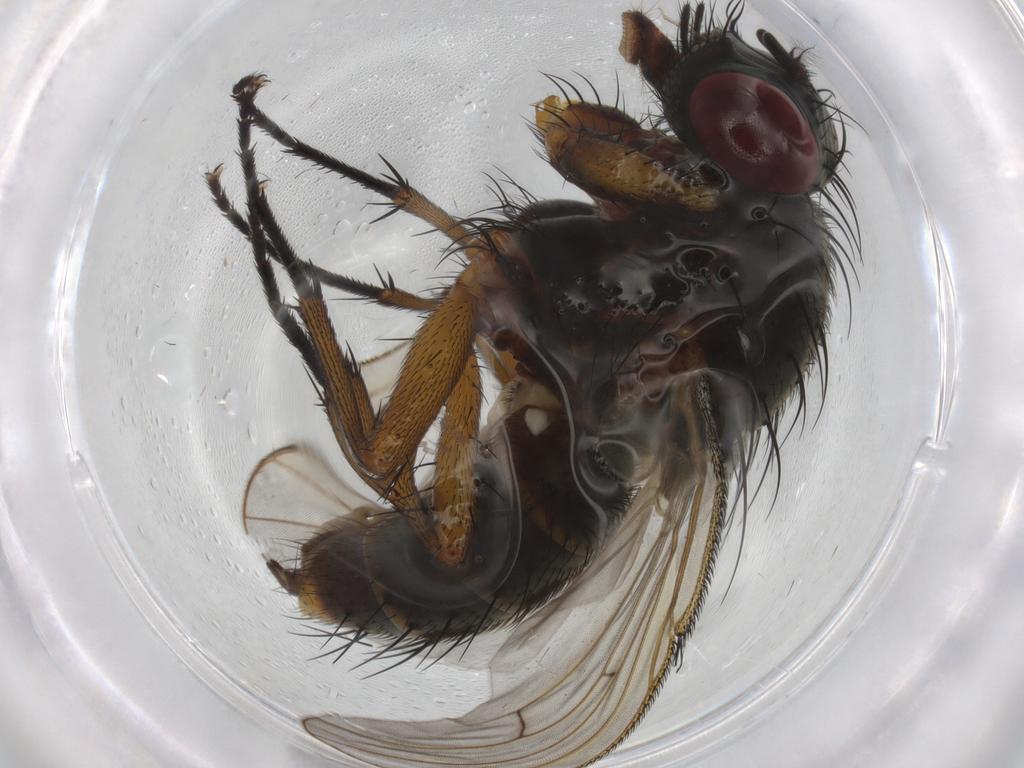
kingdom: Animalia
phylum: Arthropoda
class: Insecta
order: Diptera
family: Muscidae
